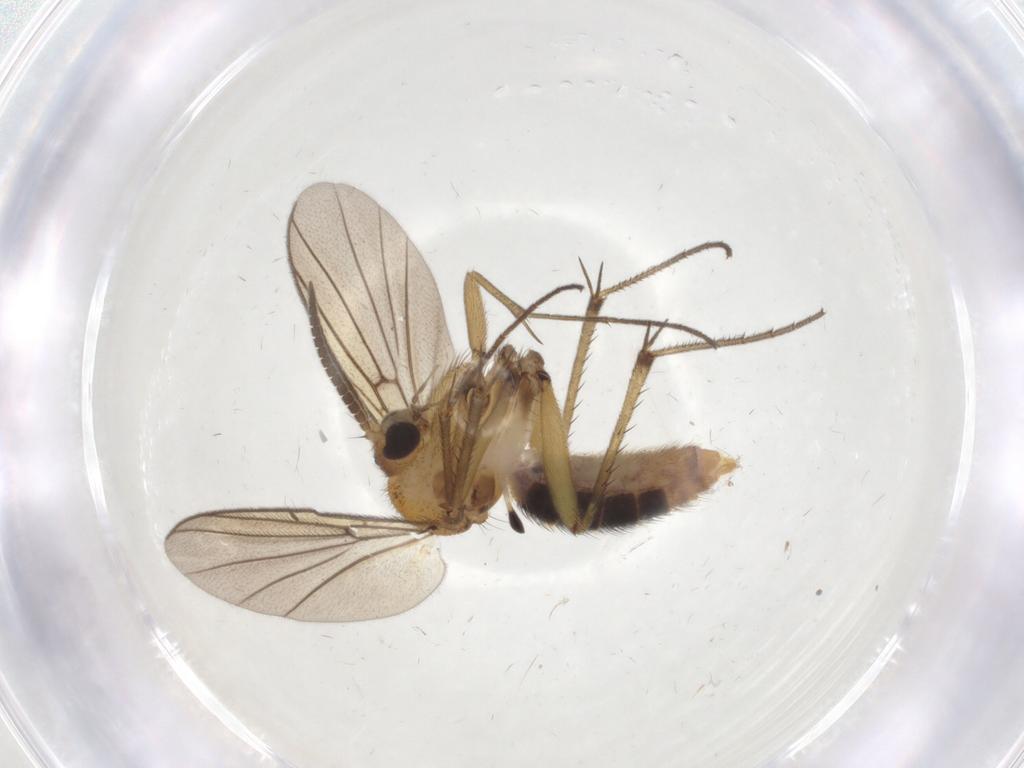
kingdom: Animalia
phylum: Arthropoda
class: Insecta
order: Diptera
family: Mycetophilidae
